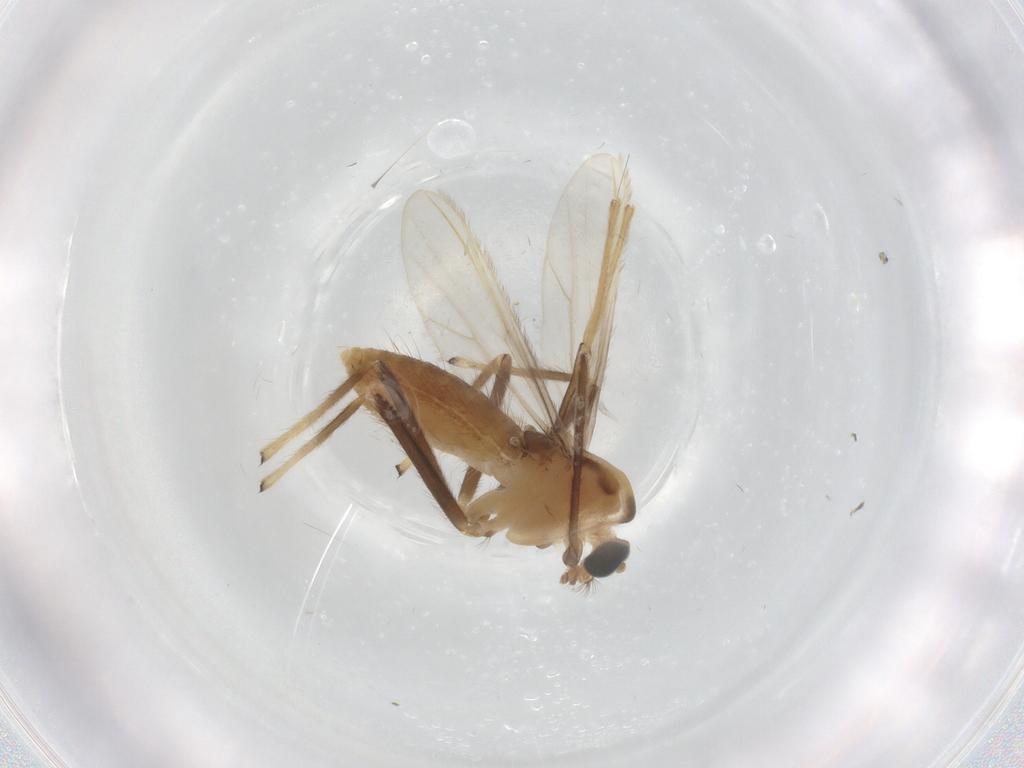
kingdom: Animalia
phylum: Arthropoda
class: Insecta
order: Diptera
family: Chironomidae
